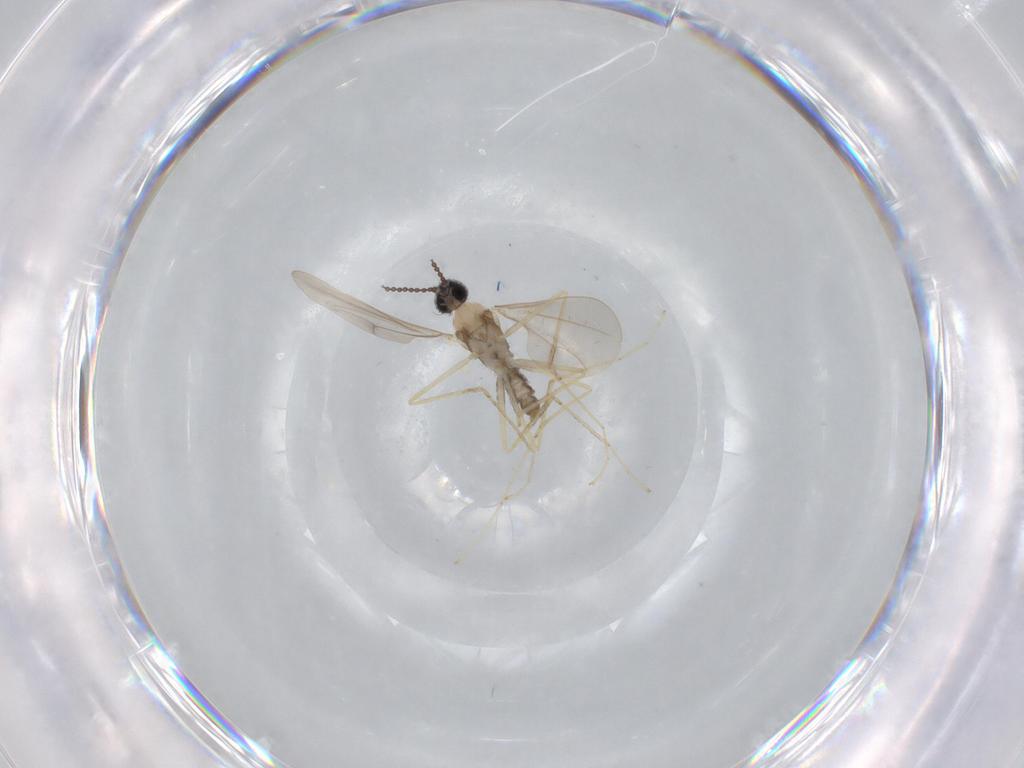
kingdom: Animalia
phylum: Arthropoda
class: Insecta
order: Diptera
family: Cecidomyiidae
